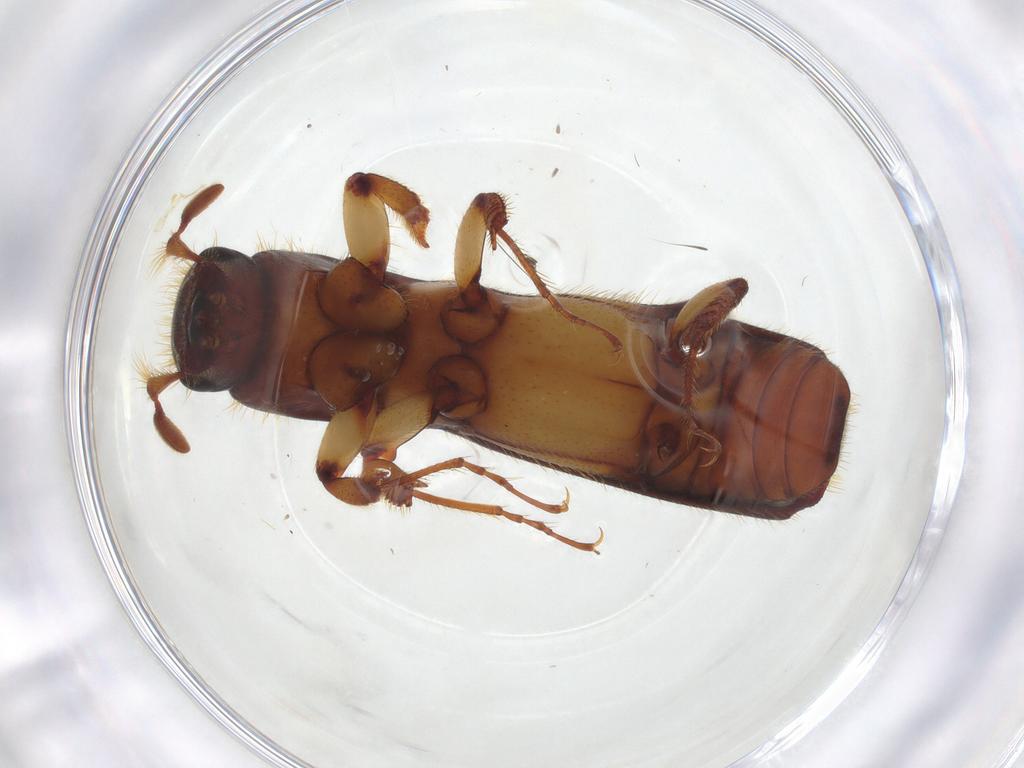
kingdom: Animalia
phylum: Arthropoda
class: Insecta
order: Coleoptera
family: Curculionidae
